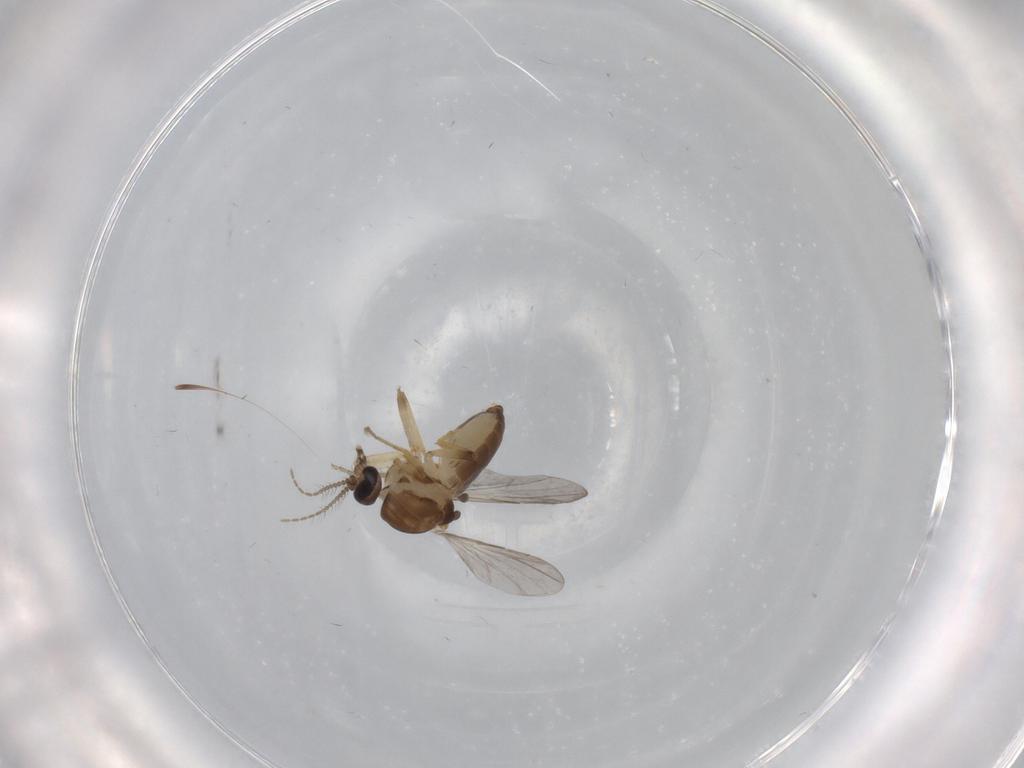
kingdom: Animalia
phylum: Arthropoda
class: Insecta
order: Diptera
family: Ceratopogonidae
